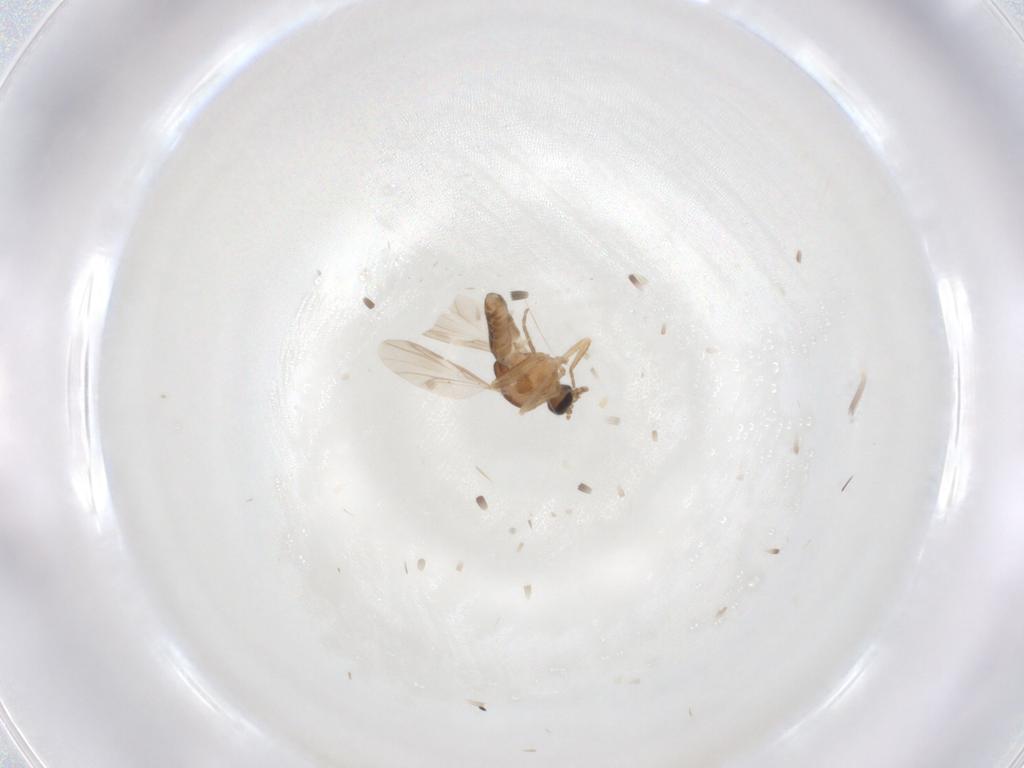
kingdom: Animalia
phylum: Arthropoda
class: Insecta
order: Diptera
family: Ceratopogonidae
